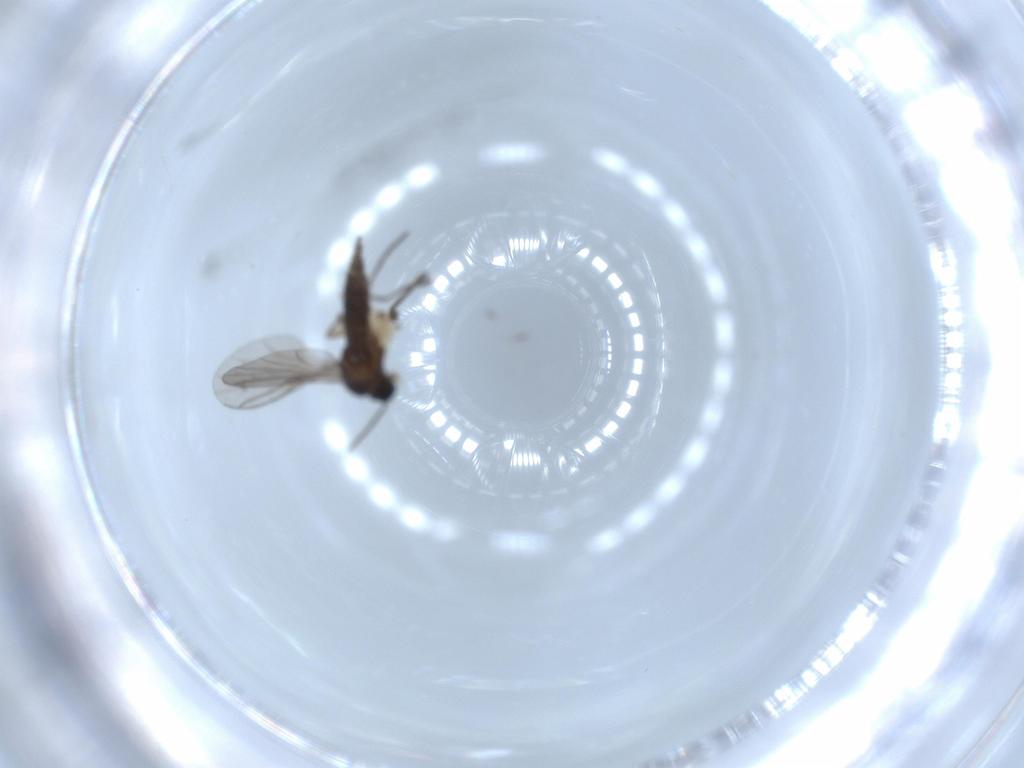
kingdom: Animalia
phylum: Arthropoda
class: Insecta
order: Diptera
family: Sciaridae
